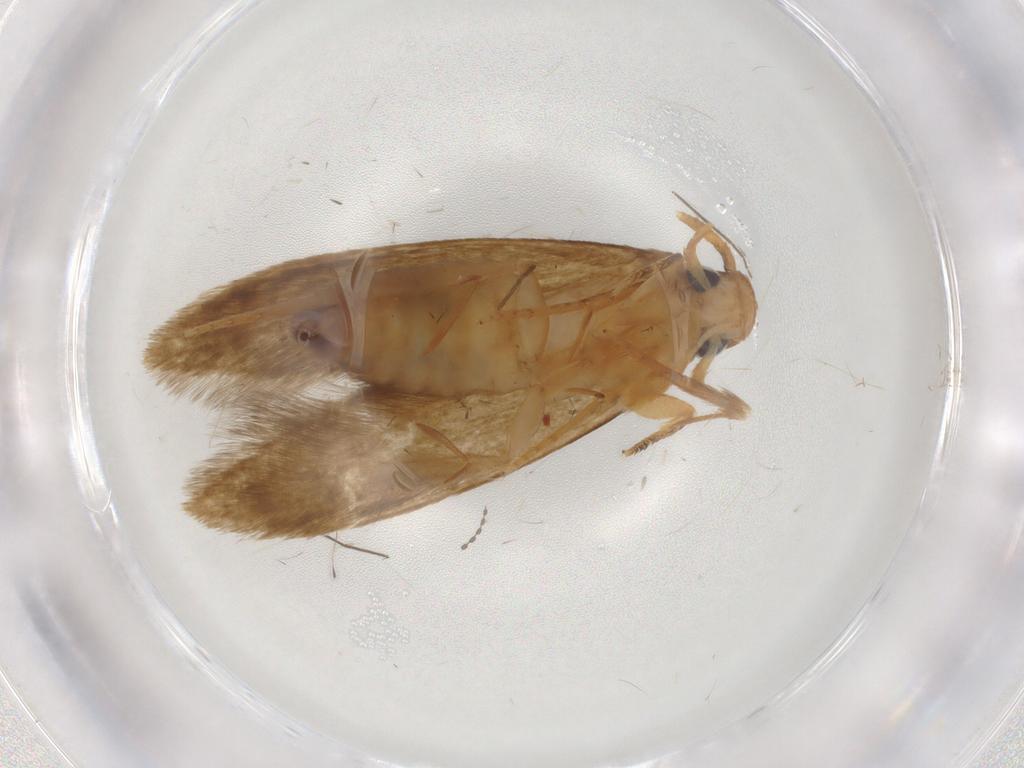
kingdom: Animalia
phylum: Arthropoda
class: Insecta
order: Lepidoptera
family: Tineidae
